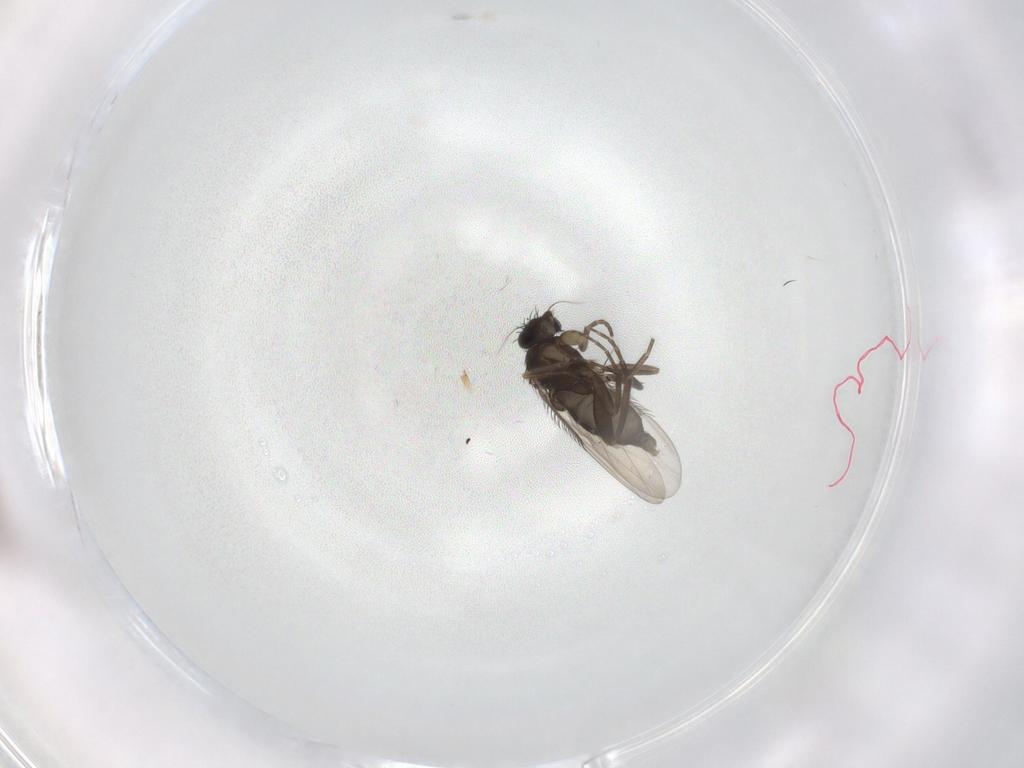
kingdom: Animalia
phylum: Arthropoda
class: Insecta
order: Diptera
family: Phoridae
